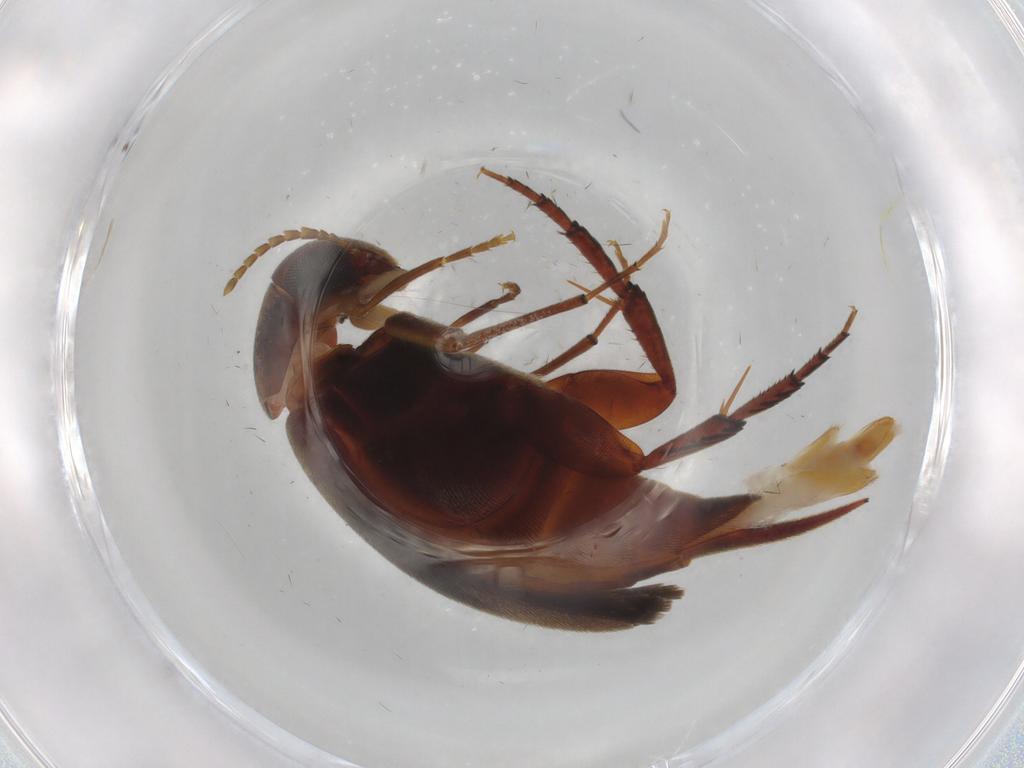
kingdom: Animalia
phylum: Arthropoda
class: Insecta
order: Coleoptera
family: Mordellidae
